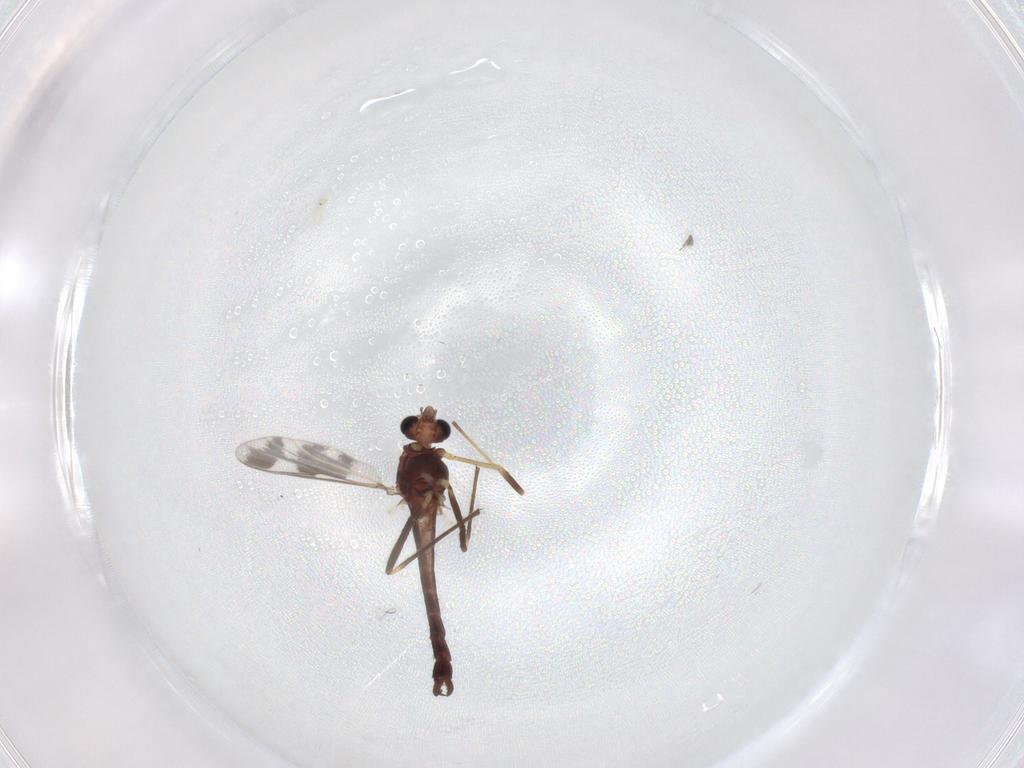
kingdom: Animalia
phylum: Arthropoda
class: Insecta
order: Diptera
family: Chironomidae
